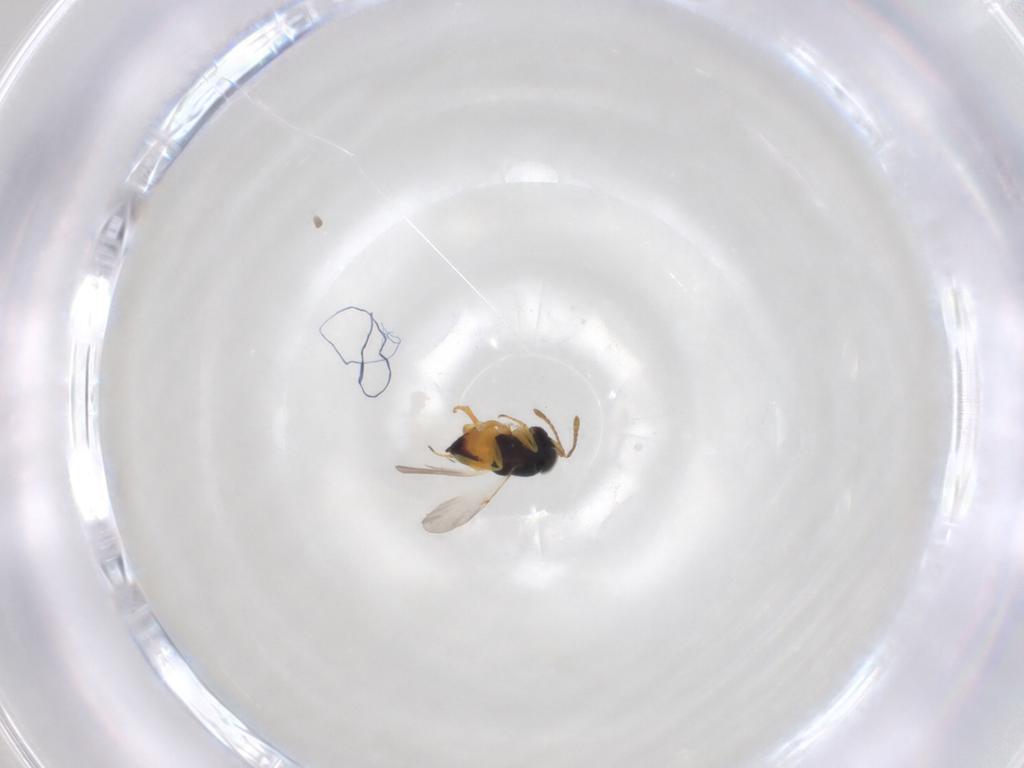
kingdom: Animalia
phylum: Arthropoda
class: Insecta
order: Hymenoptera
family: Encyrtidae
